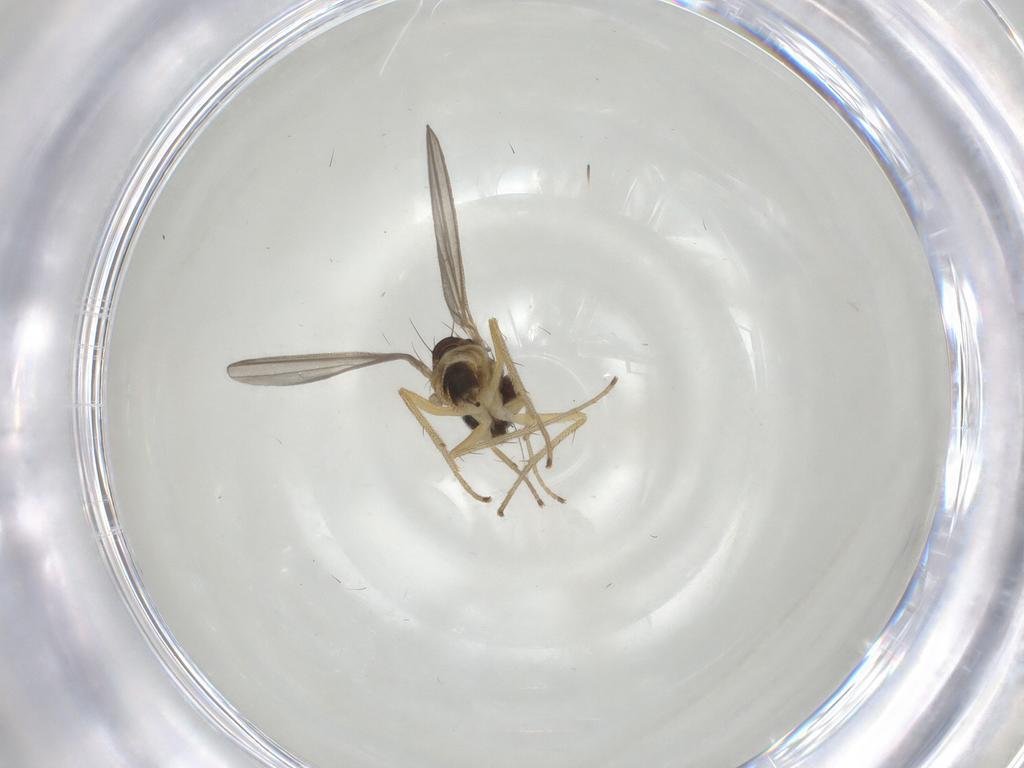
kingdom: Animalia
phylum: Arthropoda
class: Insecta
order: Diptera
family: Dolichopodidae
